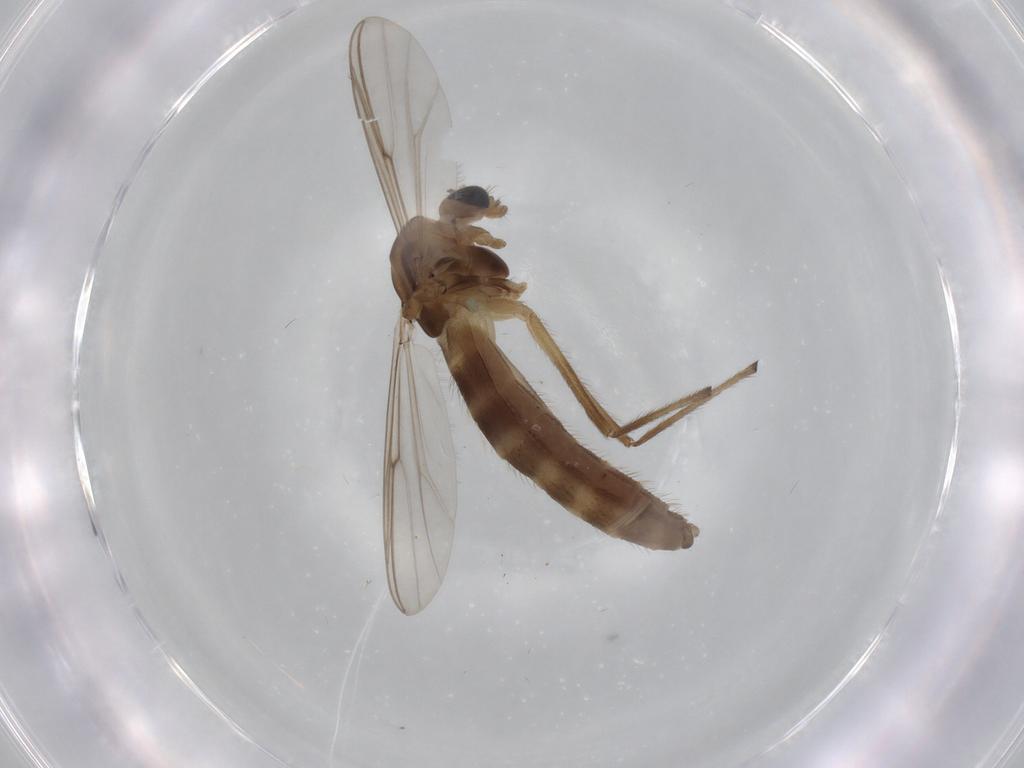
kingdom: Animalia
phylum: Arthropoda
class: Insecta
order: Diptera
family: Chironomidae
